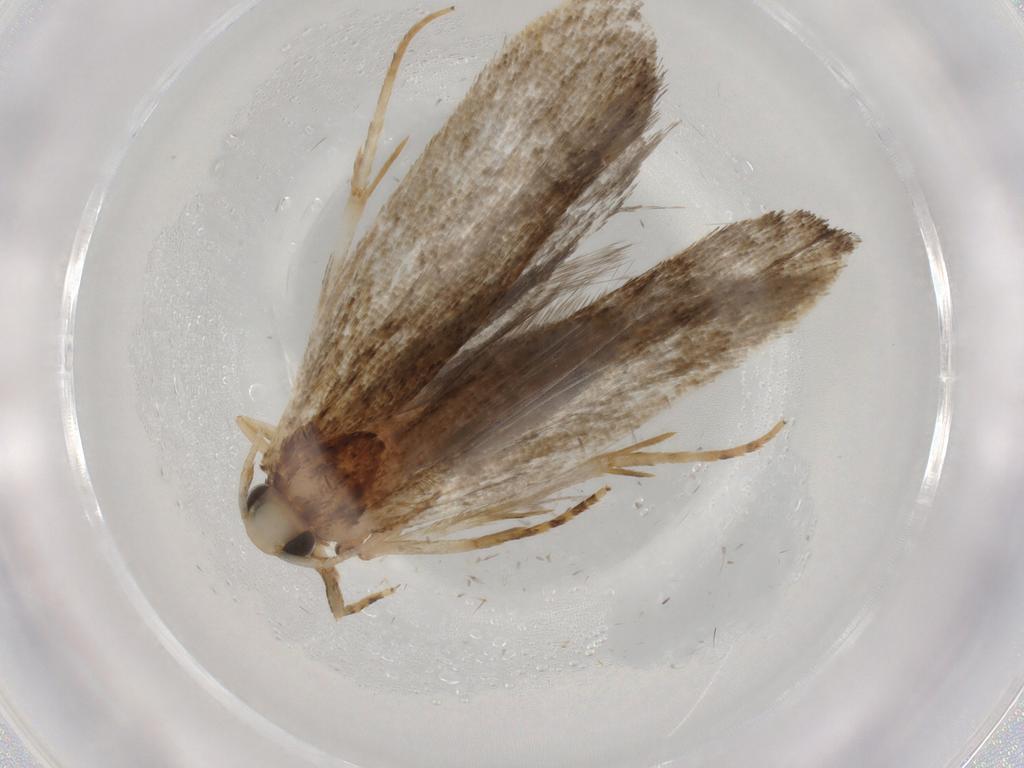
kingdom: Animalia
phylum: Arthropoda
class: Insecta
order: Lepidoptera
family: Autostichidae
